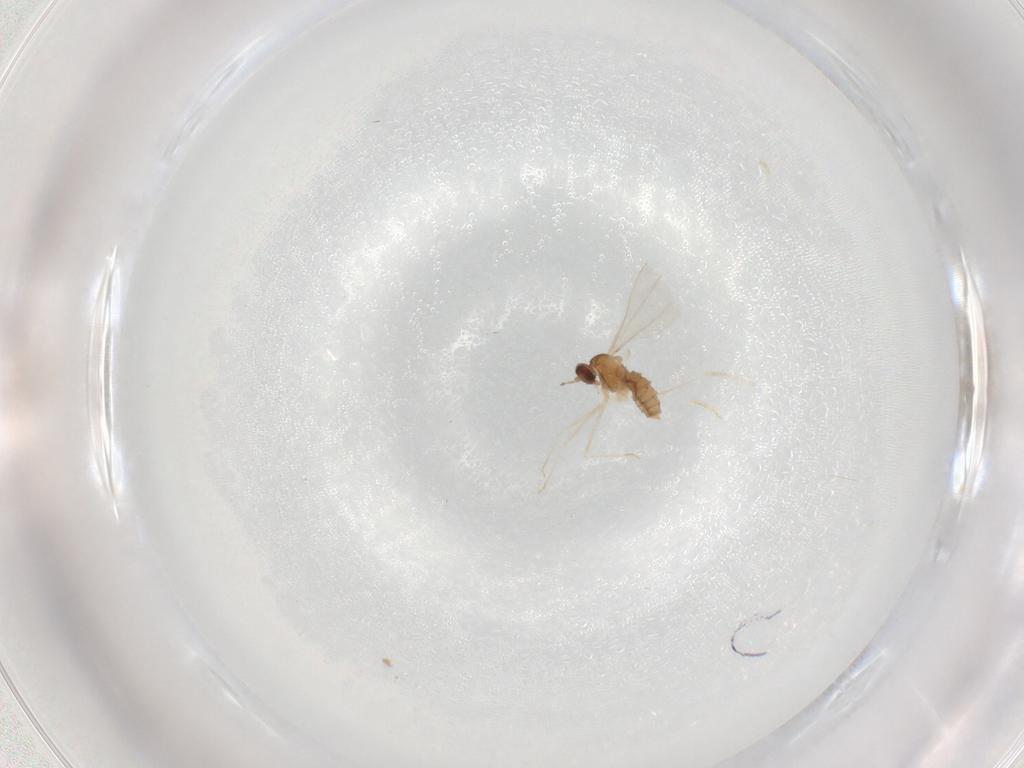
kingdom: Animalia
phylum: Arthropoda
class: Insecta
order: Diptera
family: Cecidomyiidae
